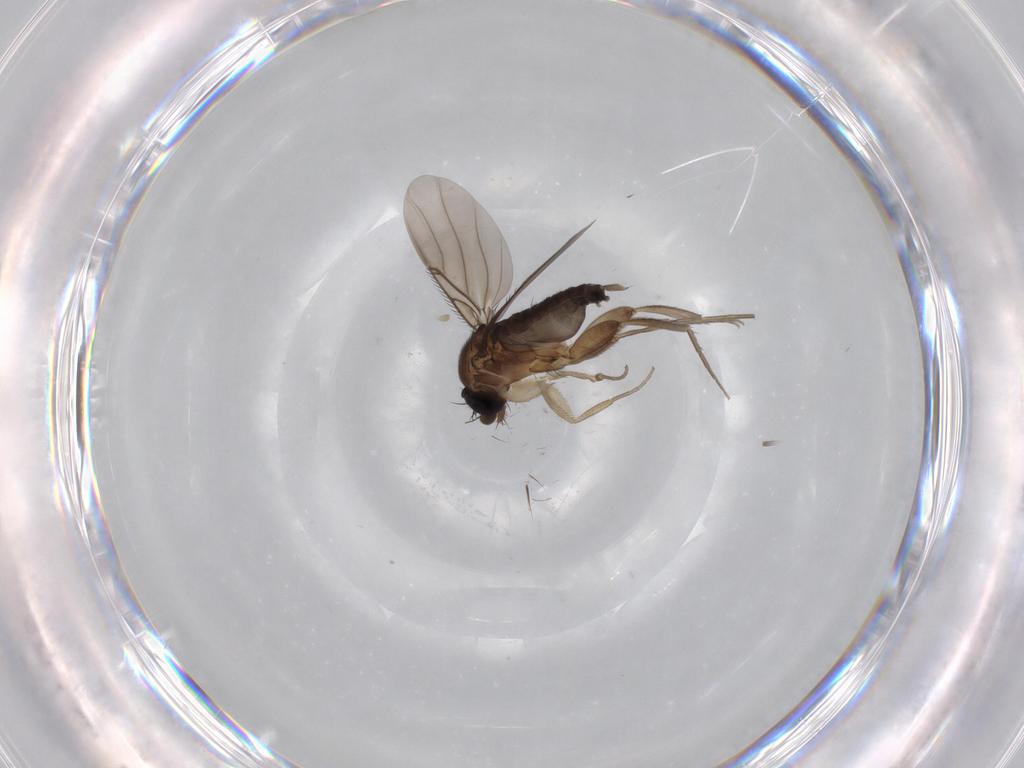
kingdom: Animalia
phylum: Arthropoda
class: Insecta
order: Diptera
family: Phoridae
